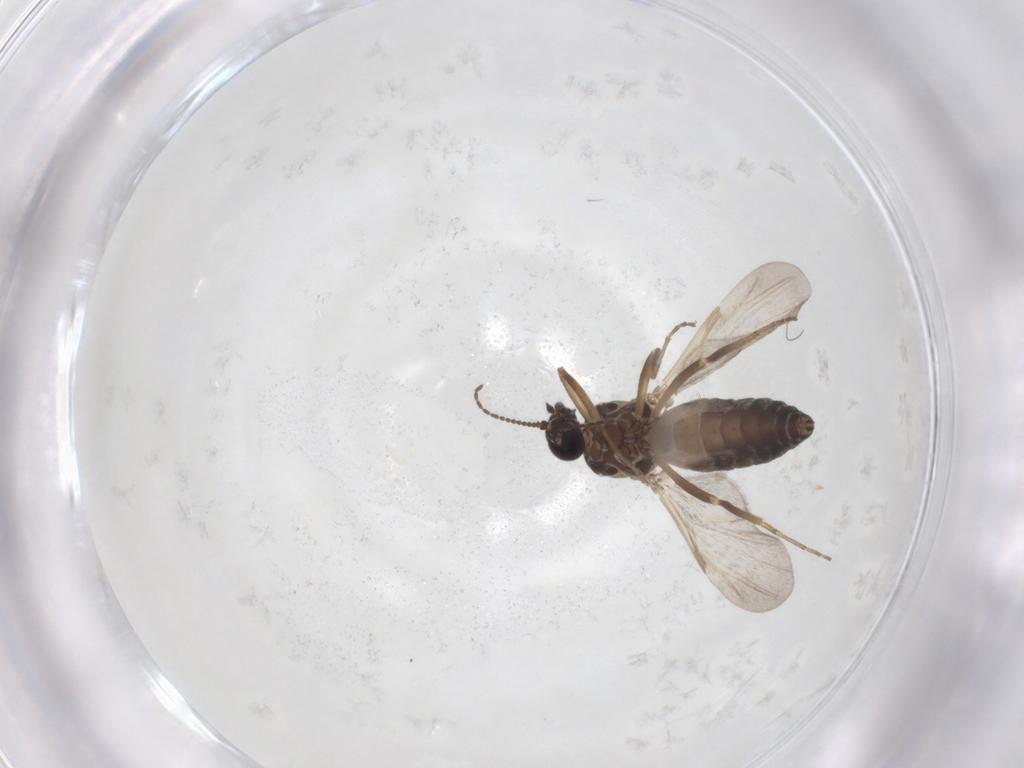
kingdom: Animalia
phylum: Arthropoda
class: Insecta
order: Diptera
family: Ceratopogonidae
